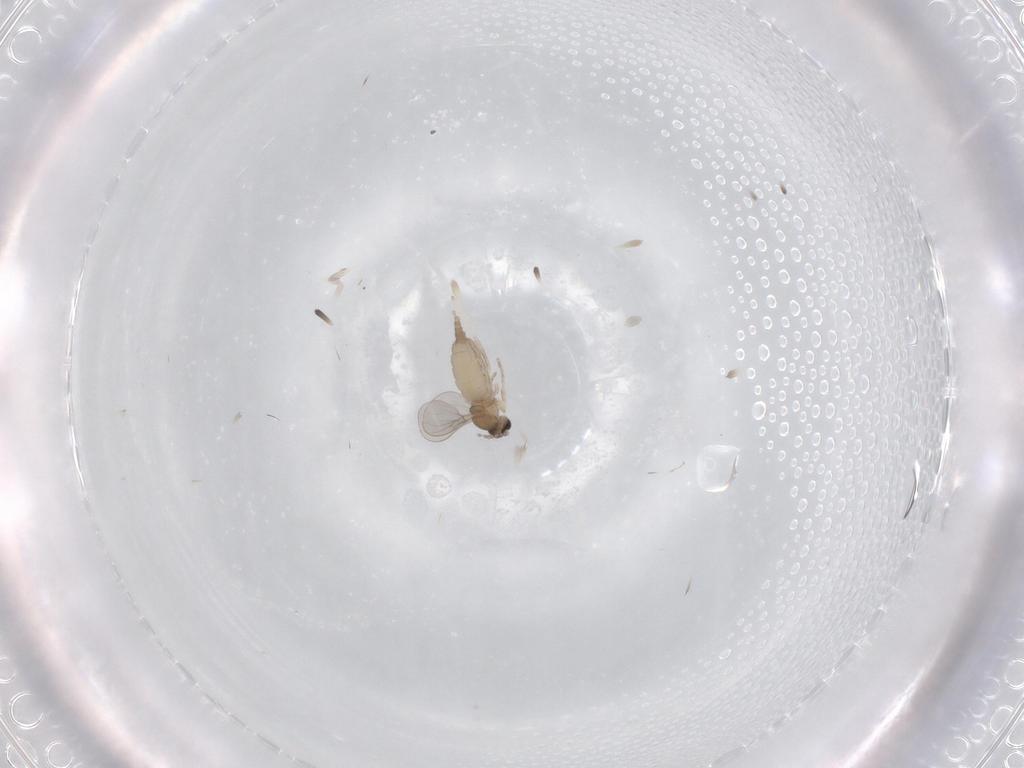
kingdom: Animalia
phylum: Arthropoda
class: Insecta
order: Diptera
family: Cecidomyiidae
